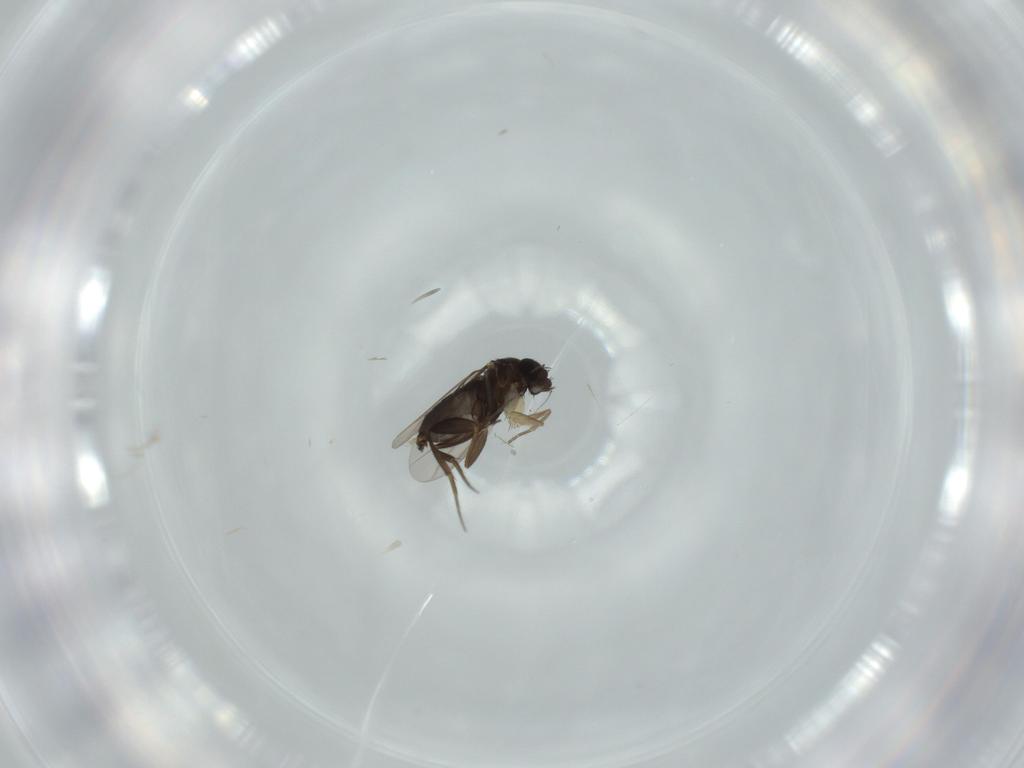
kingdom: Animalia
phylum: Arthropoda
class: Insecta
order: Diptera
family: Phoridae
